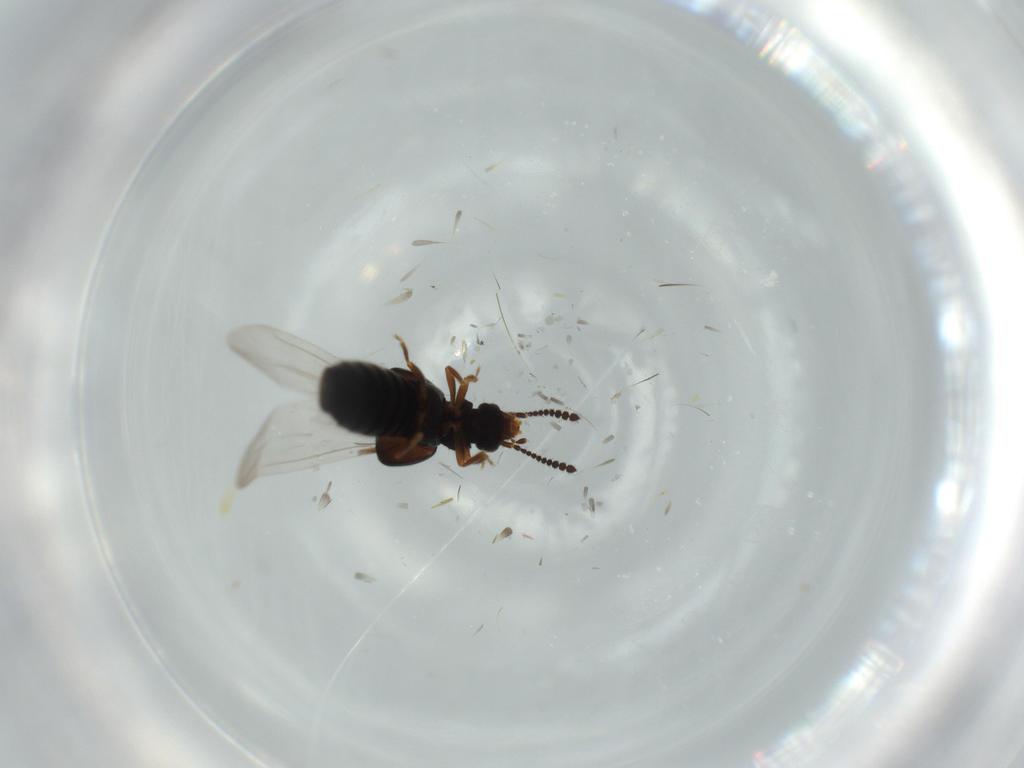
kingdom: Animalia
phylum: Arthropoda
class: Insecta
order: Coleoptera
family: Staphylinidae
